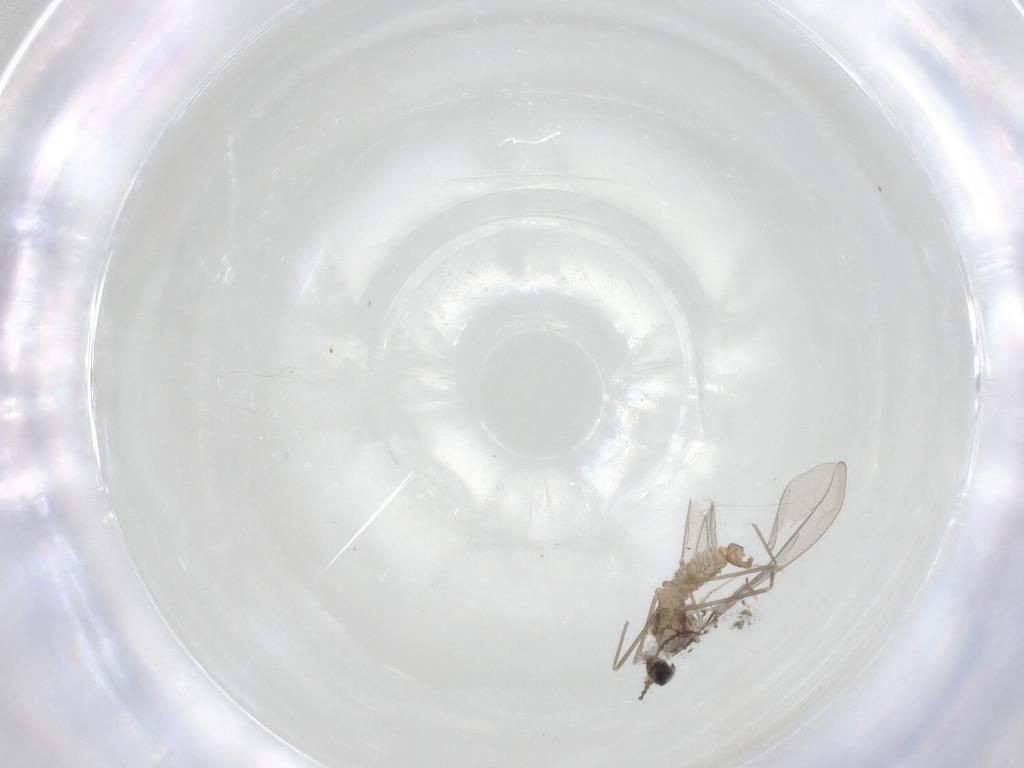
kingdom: Animalia
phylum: Arthropoda
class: Insecta
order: Diptera
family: Cecidomyiidae
